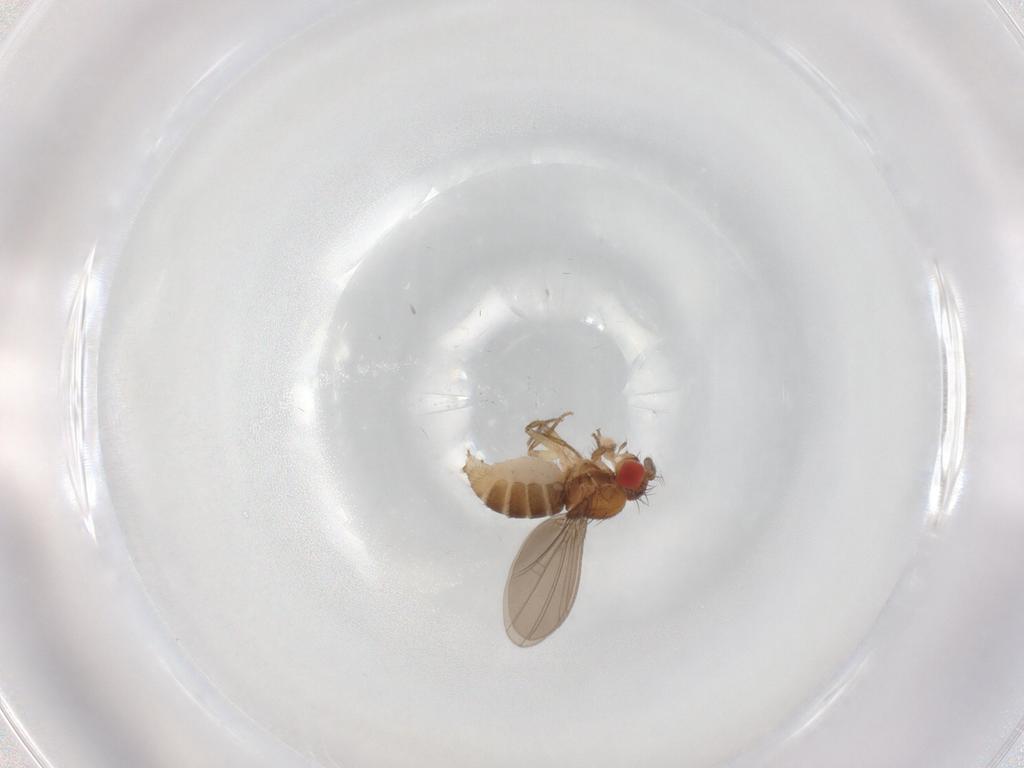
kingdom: Animalia
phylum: Arthropoda
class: Insecta
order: Diptera
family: Drosophilidae
